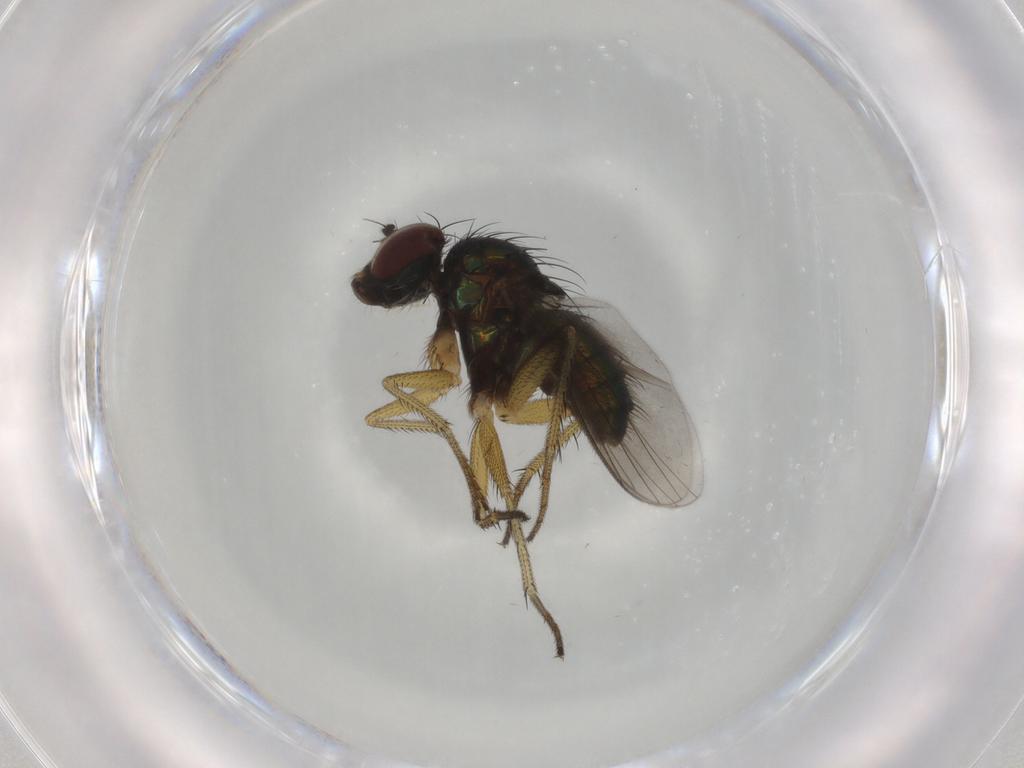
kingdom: Animalia
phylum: Arthropoda
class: Insecta
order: Diptera
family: Dolichopodidae
